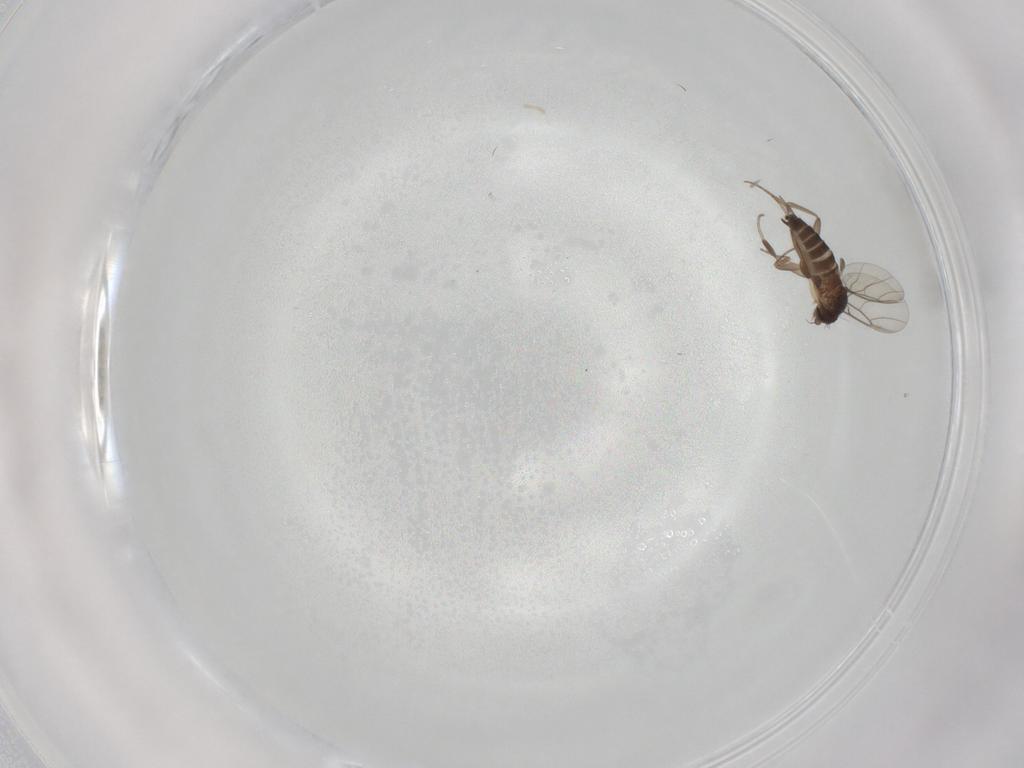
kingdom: Animalia
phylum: Arthropoda
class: Insecta
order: Diptera
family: Phoridae
